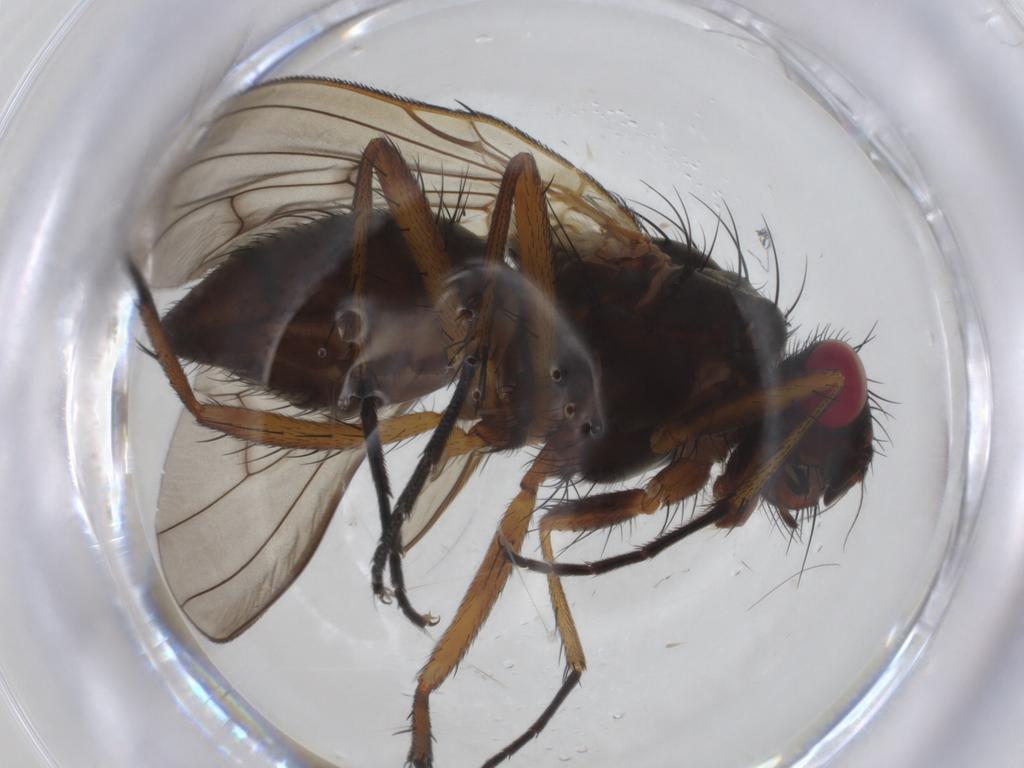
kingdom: Animalia
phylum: Arthropoda
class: Insecta
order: Diptera
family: Anthomyiidae
